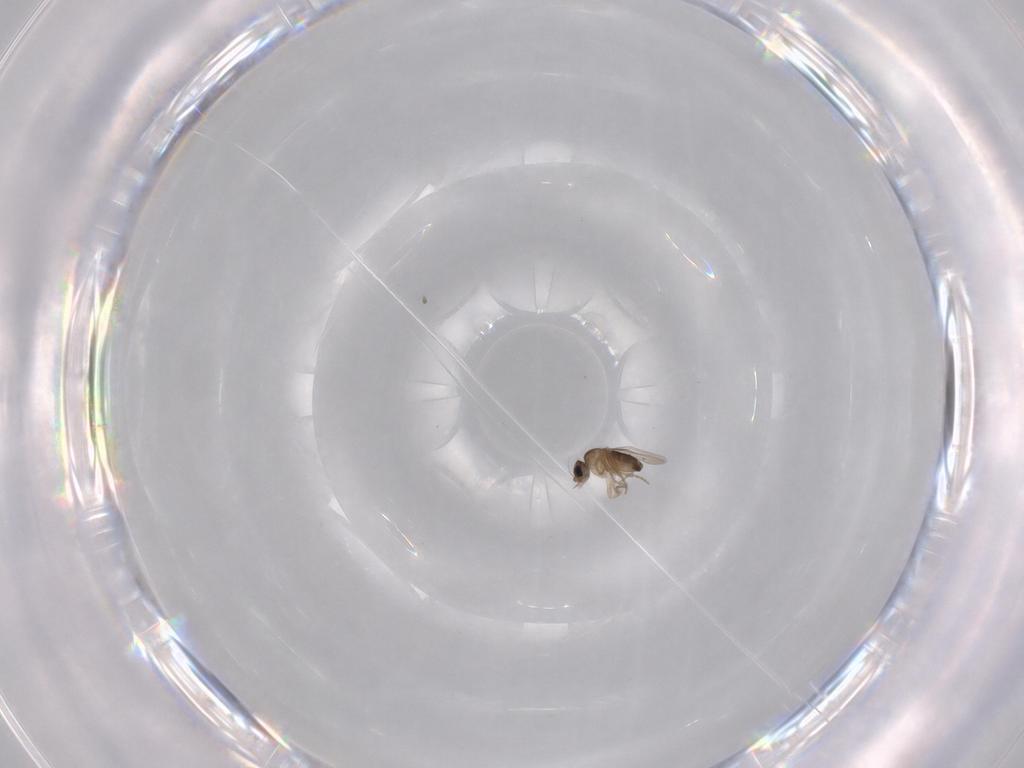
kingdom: Animalia
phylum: Arthropoda
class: Insecta
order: Diptera
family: Phoridae
